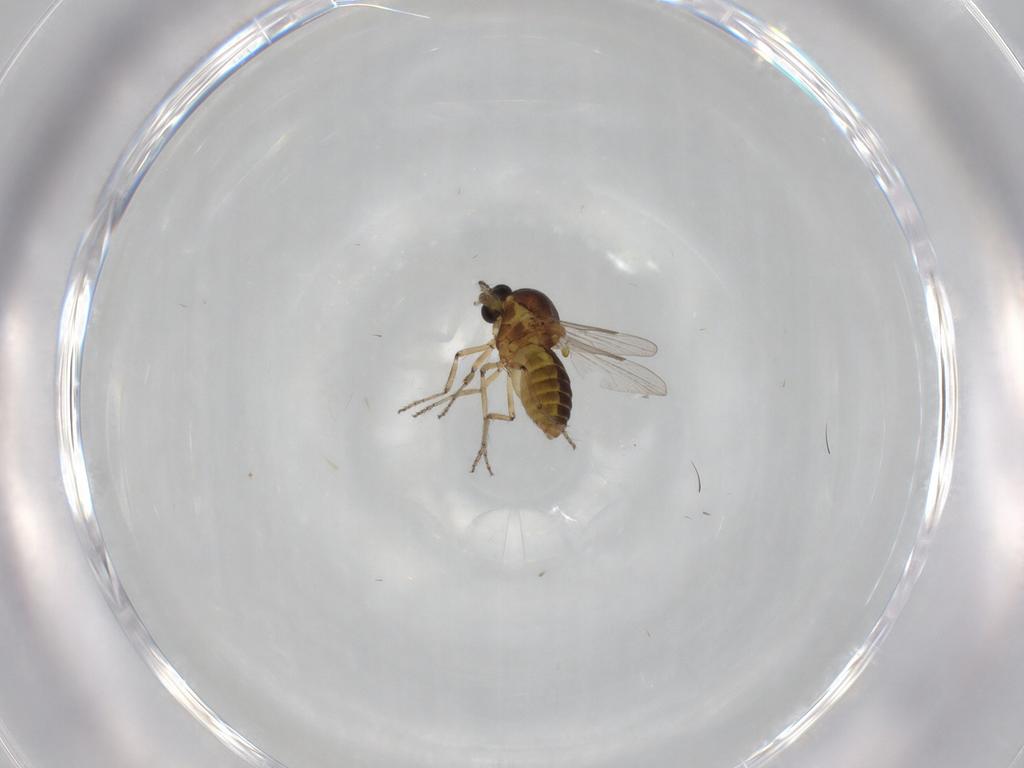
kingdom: Animalia
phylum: Arthropoda
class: Insecta
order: Diptera
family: Ceratopogonidae
